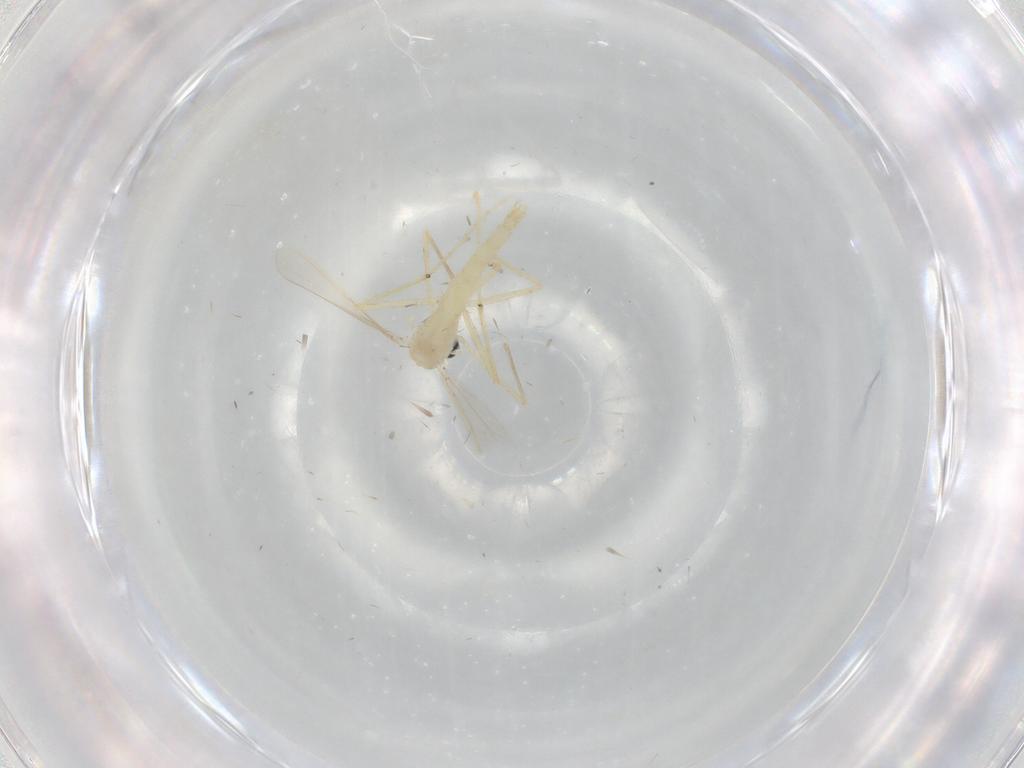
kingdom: Animalia
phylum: Arthropoda
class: Insecta
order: Diptera
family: Chironomidae
